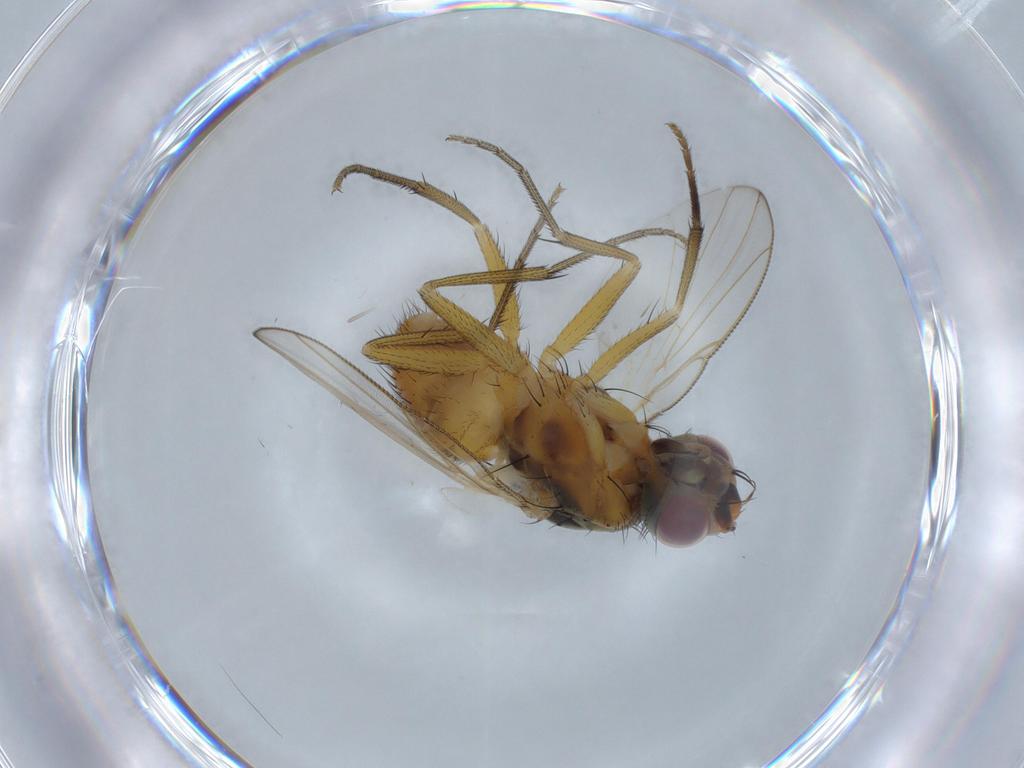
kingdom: Animalia
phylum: Arthropoda
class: Insecta
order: Diptera
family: Muscidae
